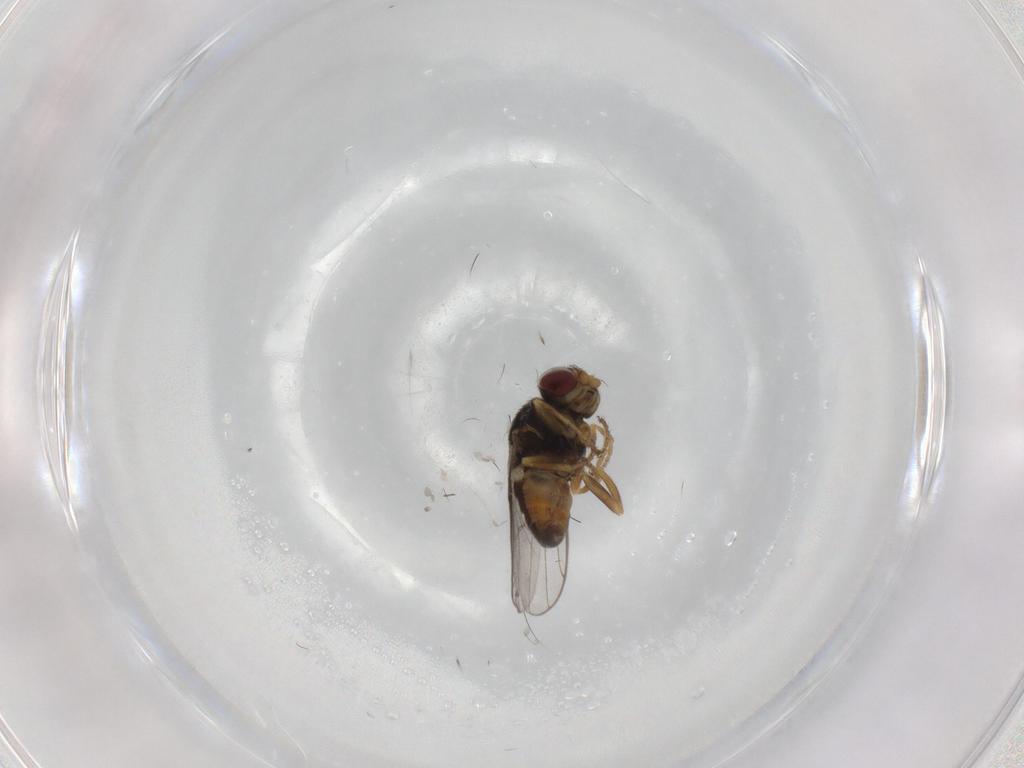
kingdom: Animalia
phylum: Arthropoda
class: Insecta
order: Diptera
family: Chloropidae
